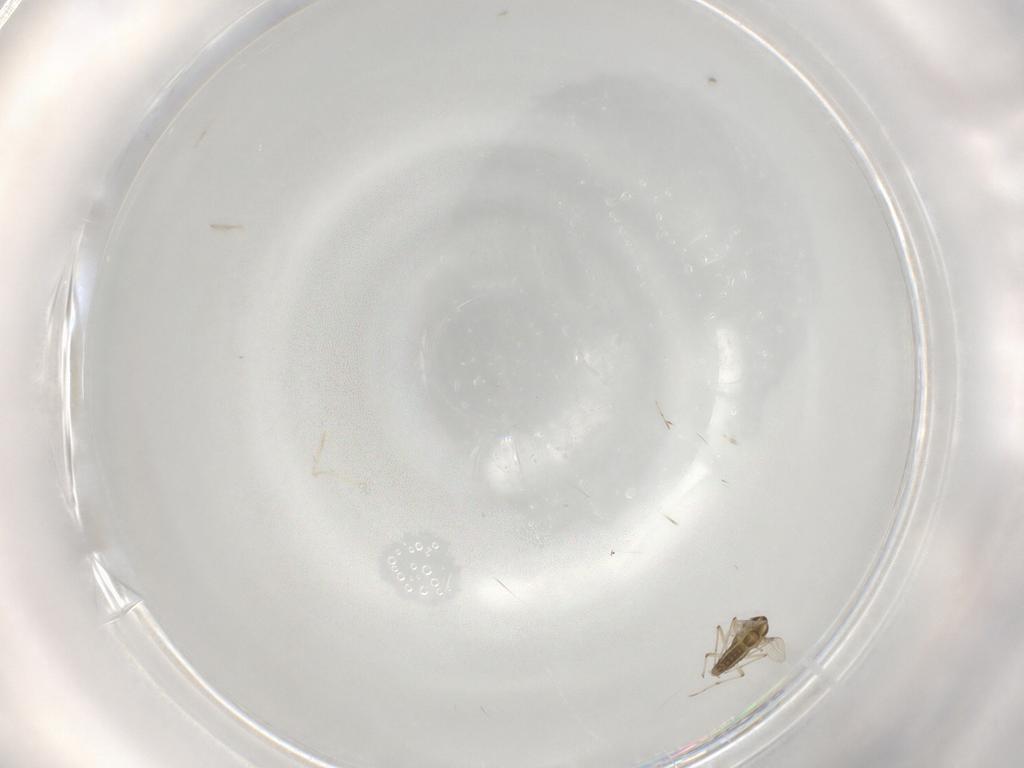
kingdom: Animalia
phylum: Arthropoda
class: Insecta
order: Diptera
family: Chironomidae
